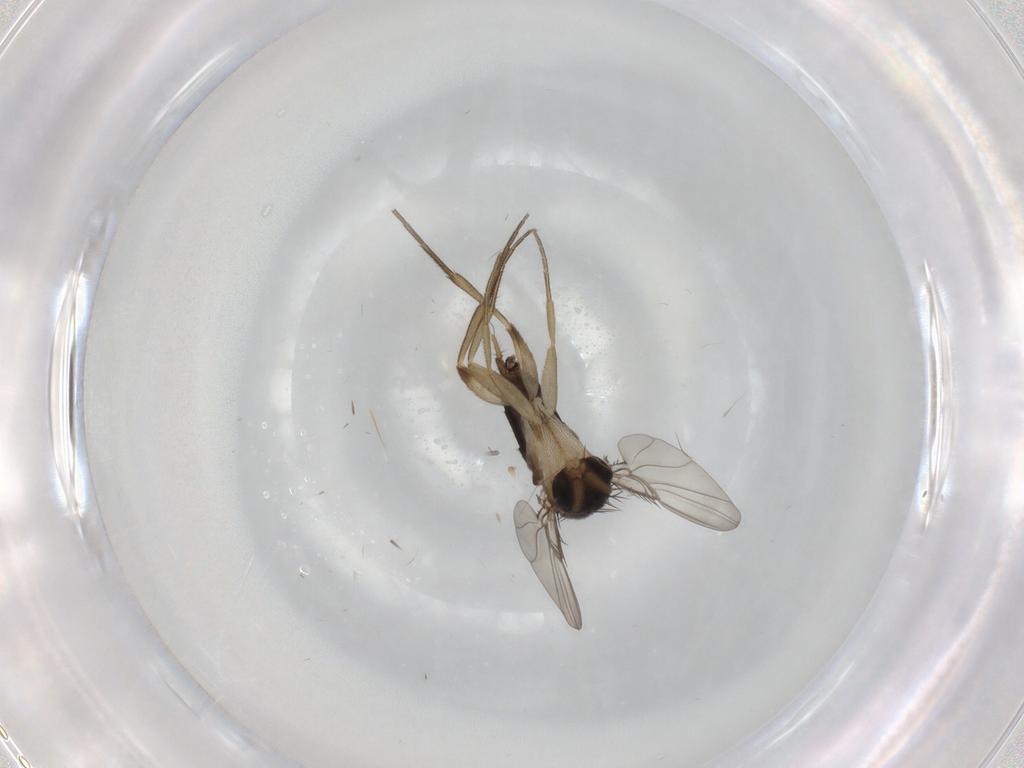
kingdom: Animalia
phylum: Arthropoda
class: Insecta
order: Diptera
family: Phoridae
